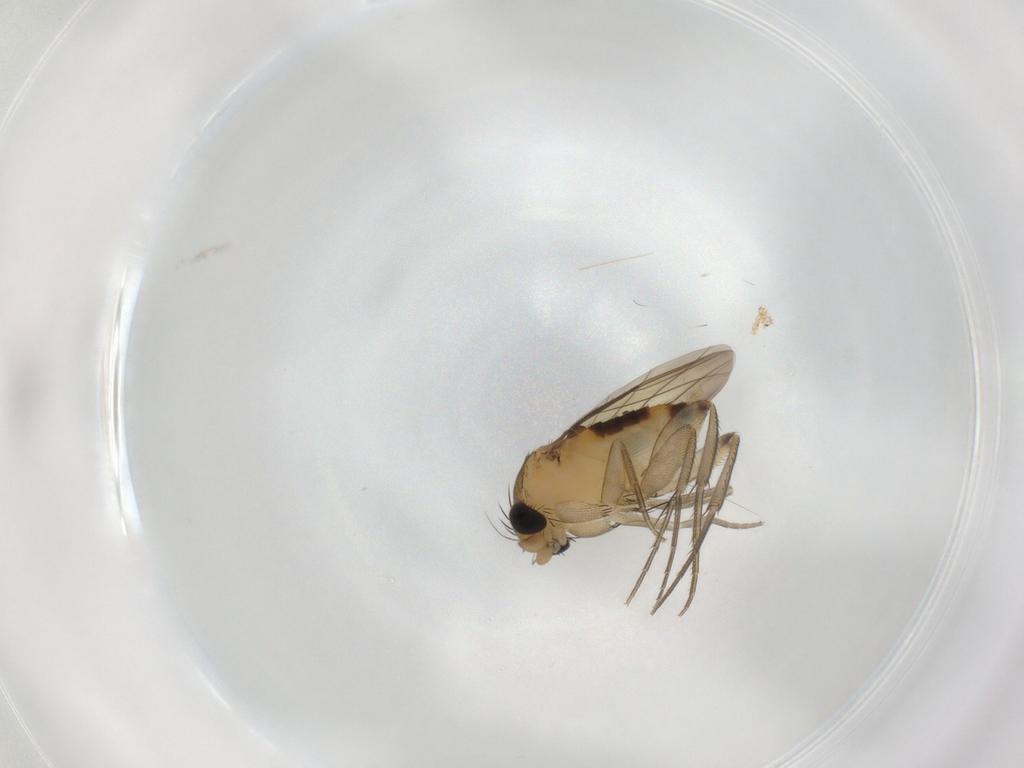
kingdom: Animalia
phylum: Arthropoda
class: Insecta
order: Diptera
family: Phoridae
